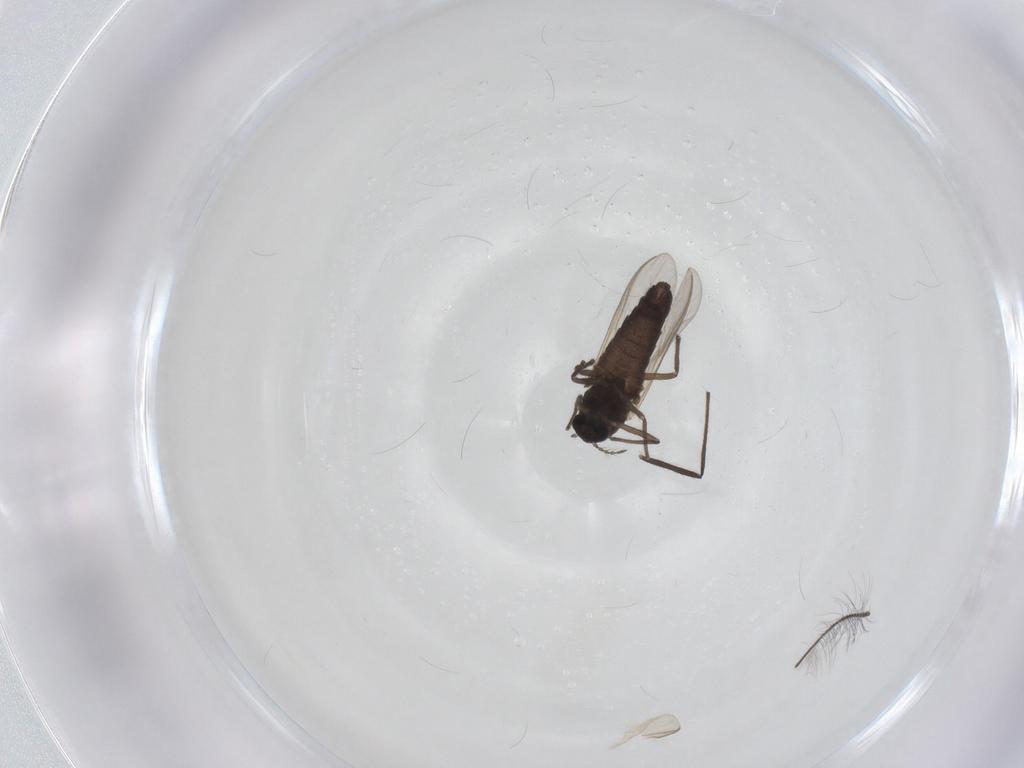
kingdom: Animalia
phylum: Arthropoda
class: Insecta
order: Diptera
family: Chironomidae
